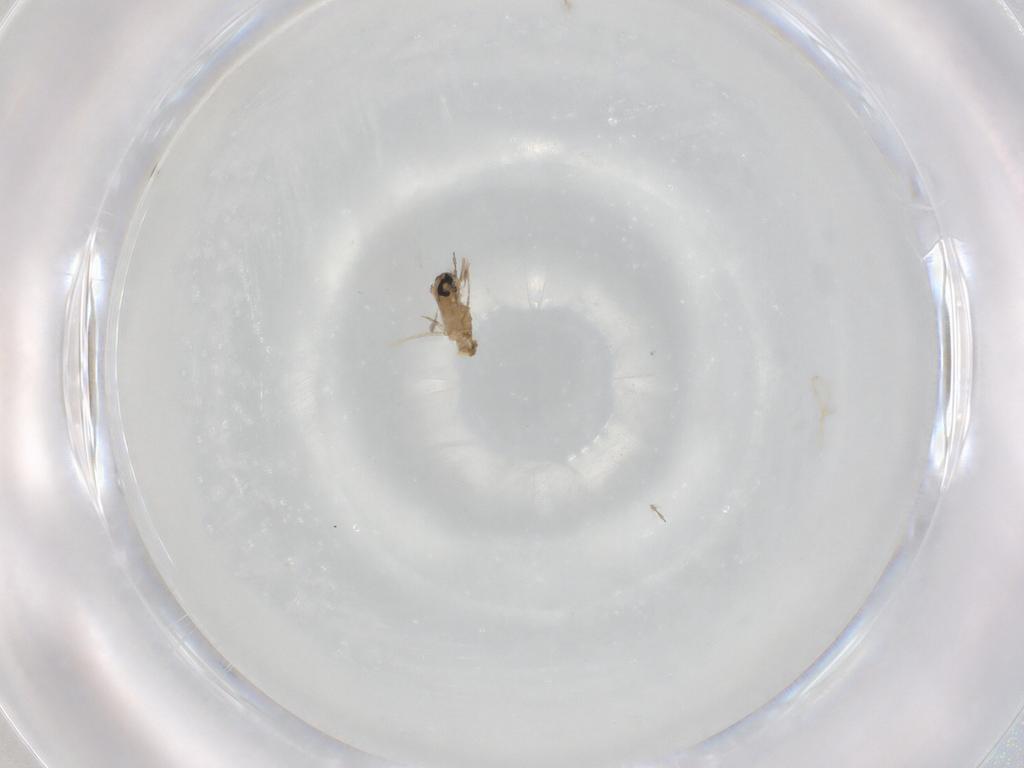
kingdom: Animalia
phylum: Arthropoda
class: Insecta
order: Diptera
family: Cecidomyiidae
